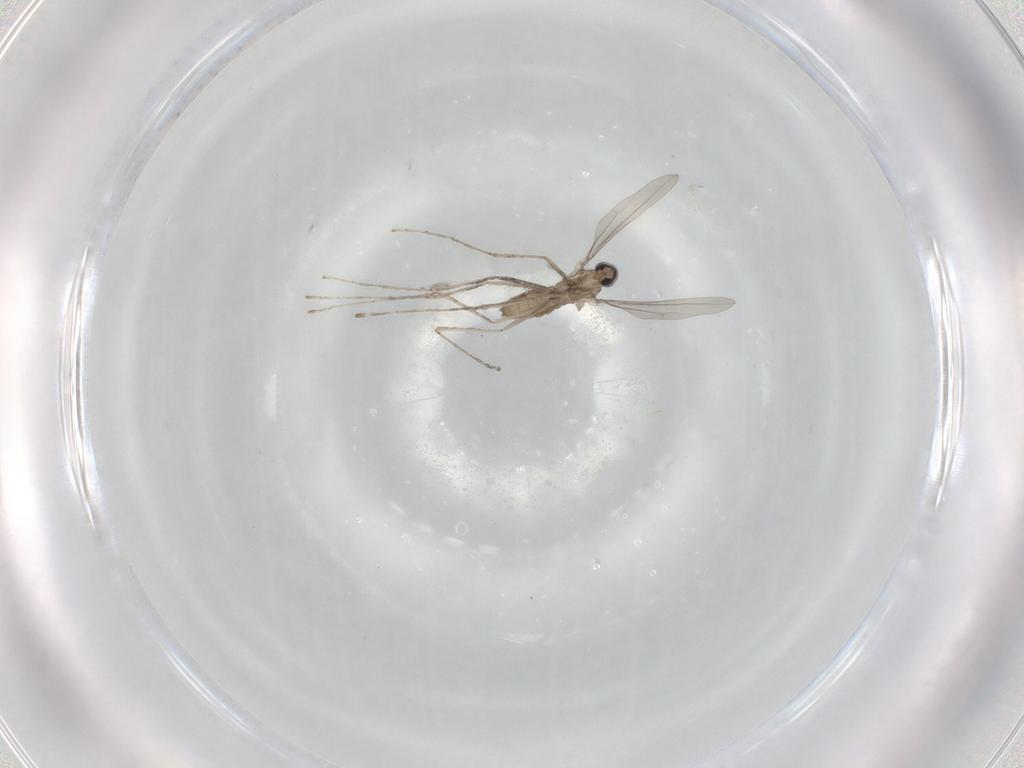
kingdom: Animalia
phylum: Arthropoda
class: Insecta
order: Diptera
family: Cecidomyiidae
